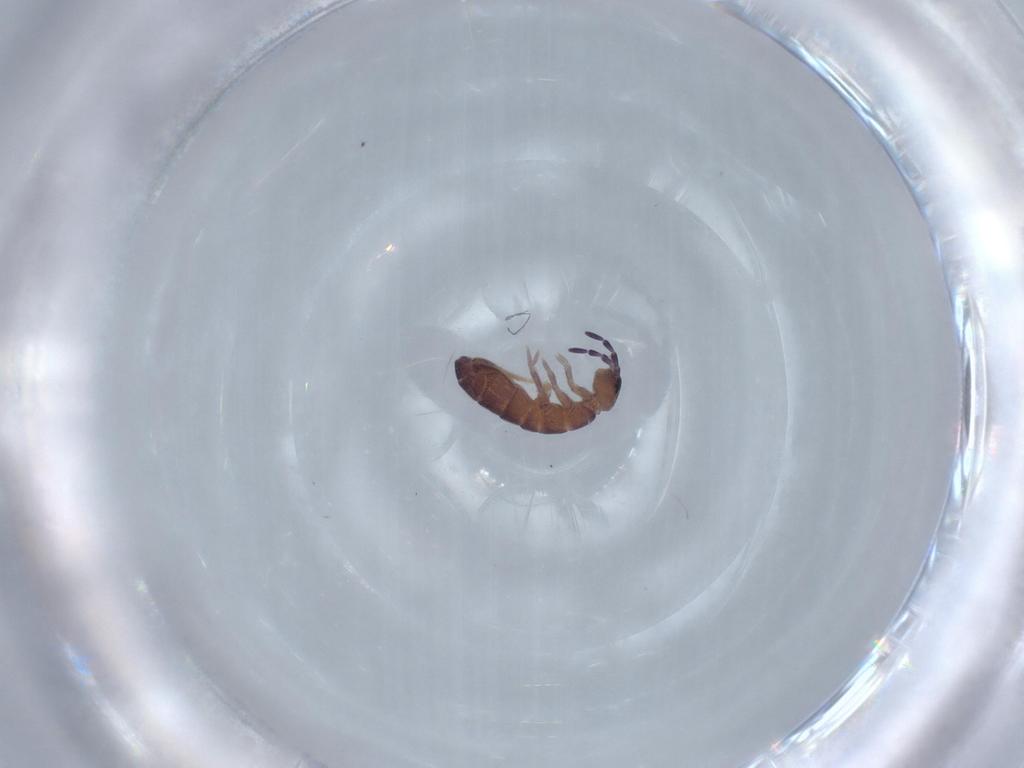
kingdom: Animalia
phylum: Arthropoda
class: Collembola
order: Entomobryomorpha
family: Isotomidae
